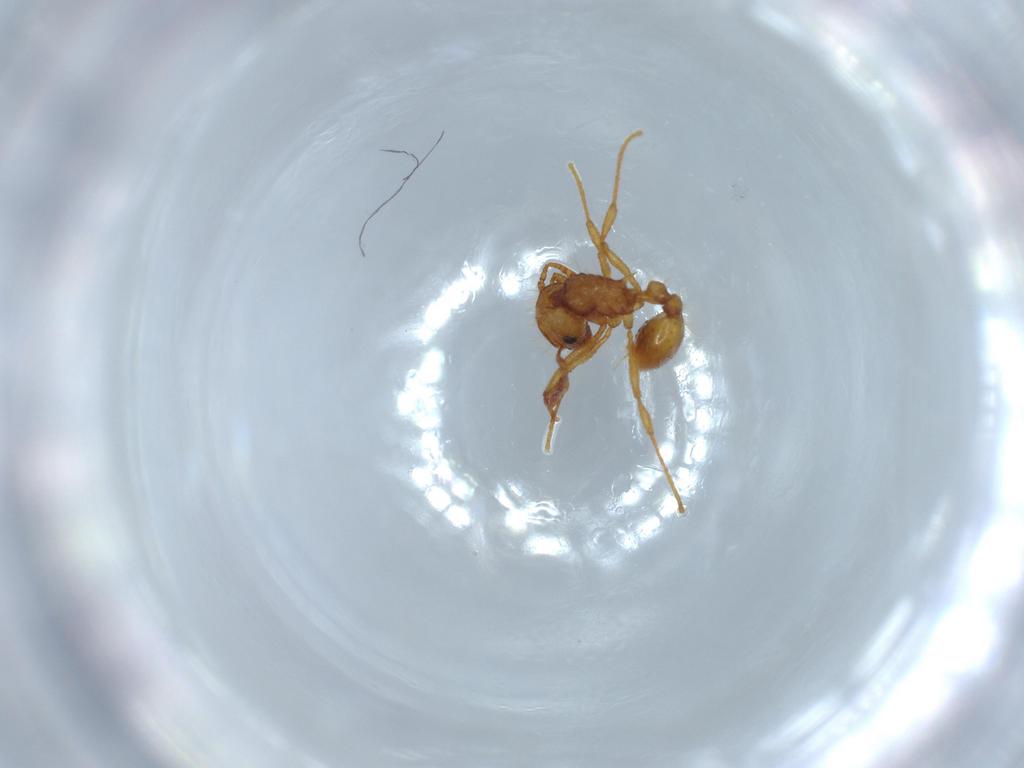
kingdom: Animalia
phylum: Arthropoda
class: Insecta
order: Hymenoptera
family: Formicidae
